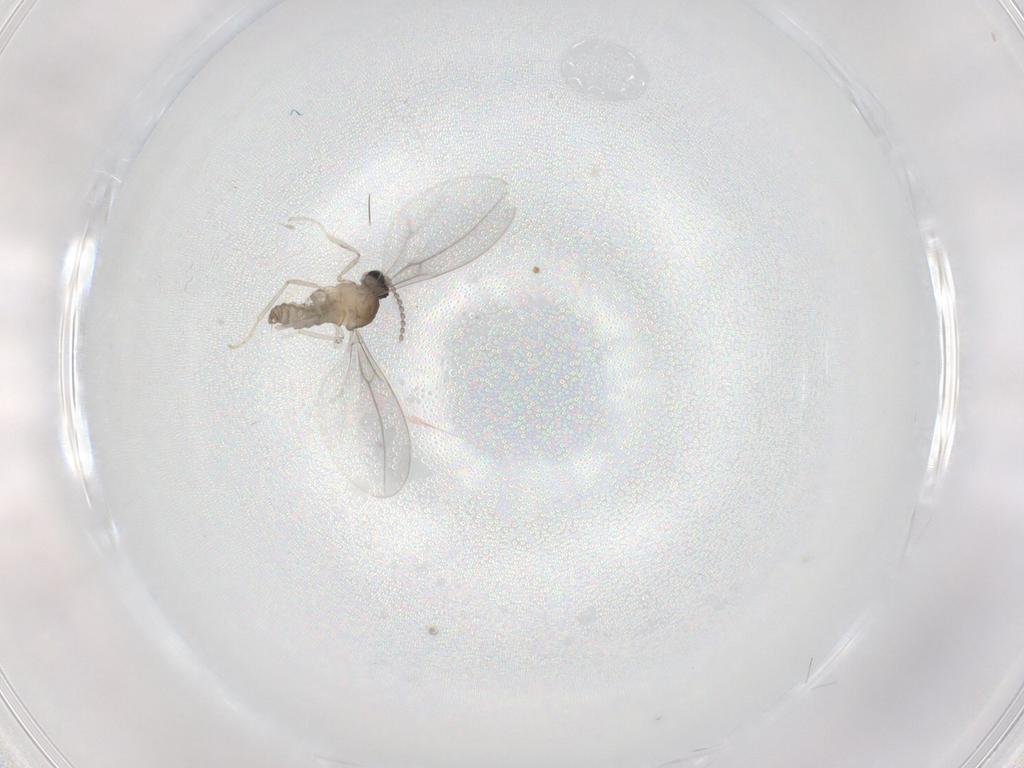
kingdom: Animalia
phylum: Arthropoda
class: Insecta
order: Diptera
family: Cecidomyiidae
